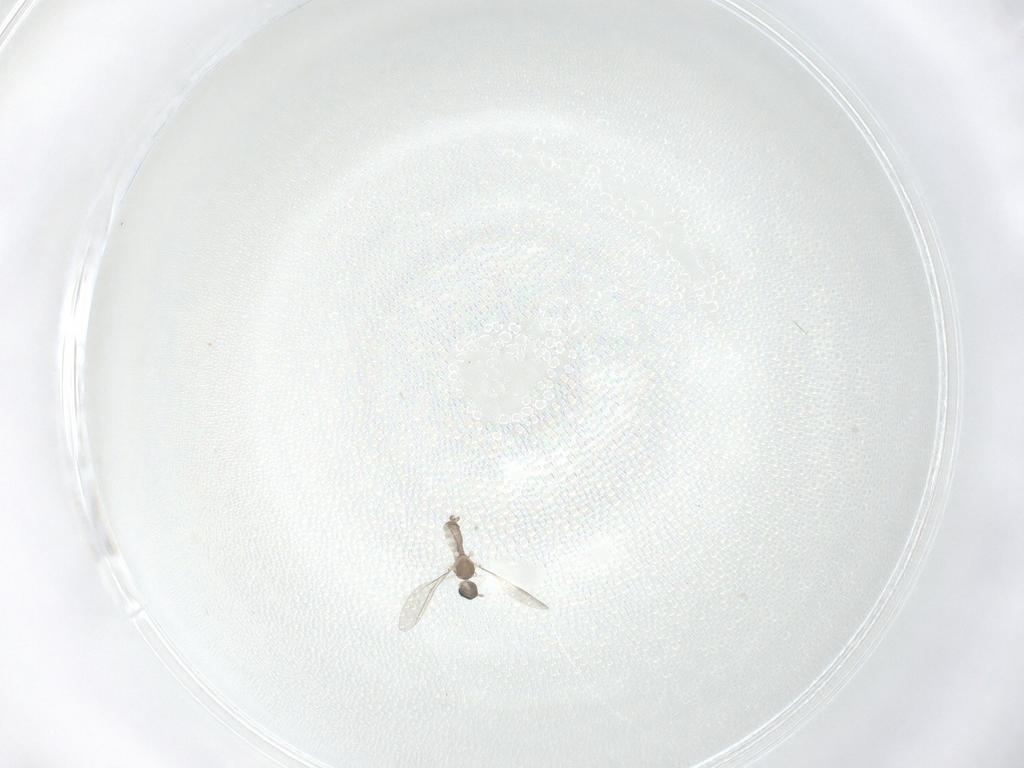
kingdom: Animalia
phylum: Arthropoda
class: Insecta
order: Diptera
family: Cecidomyiidae
